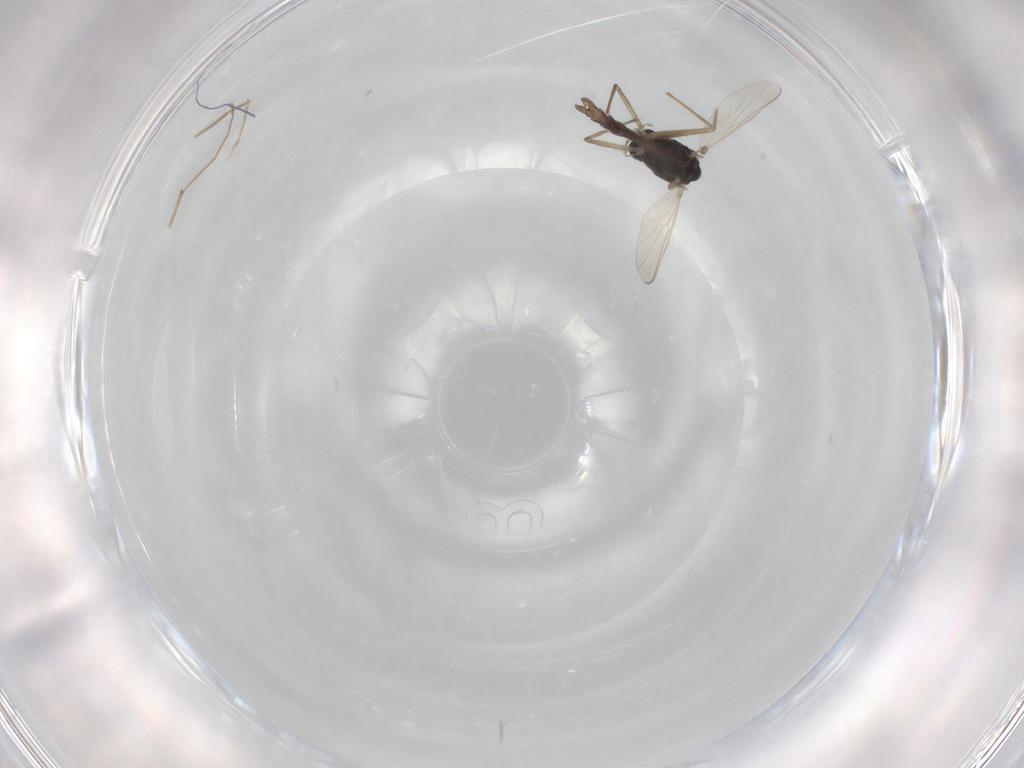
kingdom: Animalia
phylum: Arthropoda
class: Insecta
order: Diptera
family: Chironomidae
